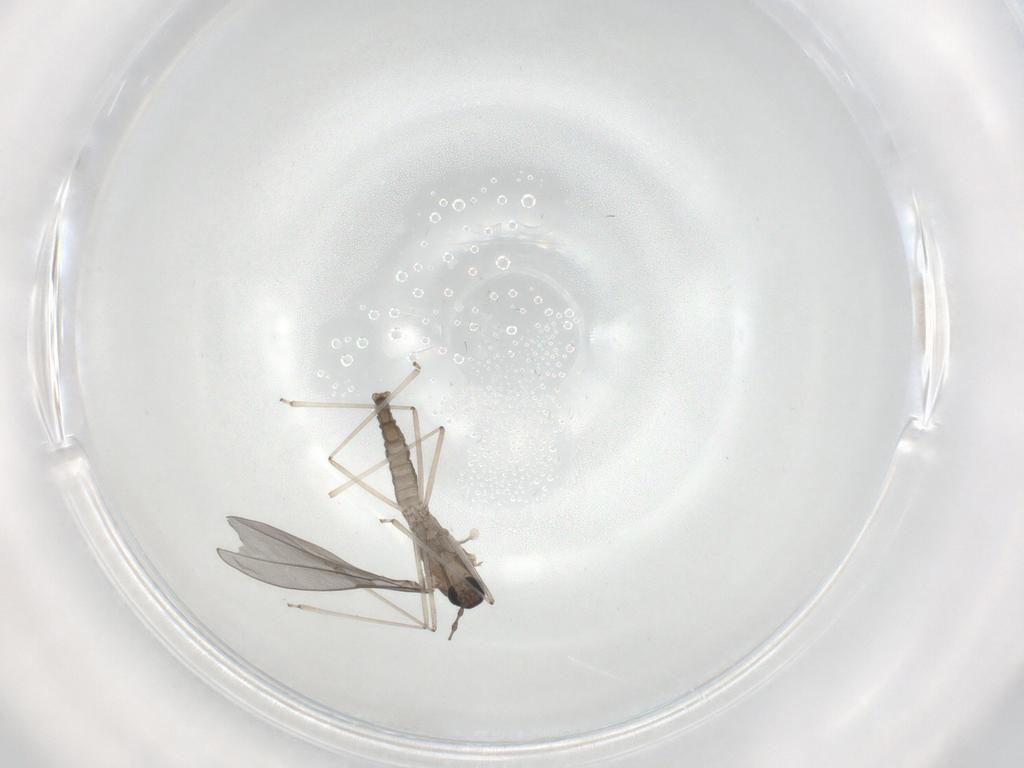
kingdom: Animalia
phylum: Arthropoda
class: Insecta
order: Diptera
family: Cecidomyiidae
